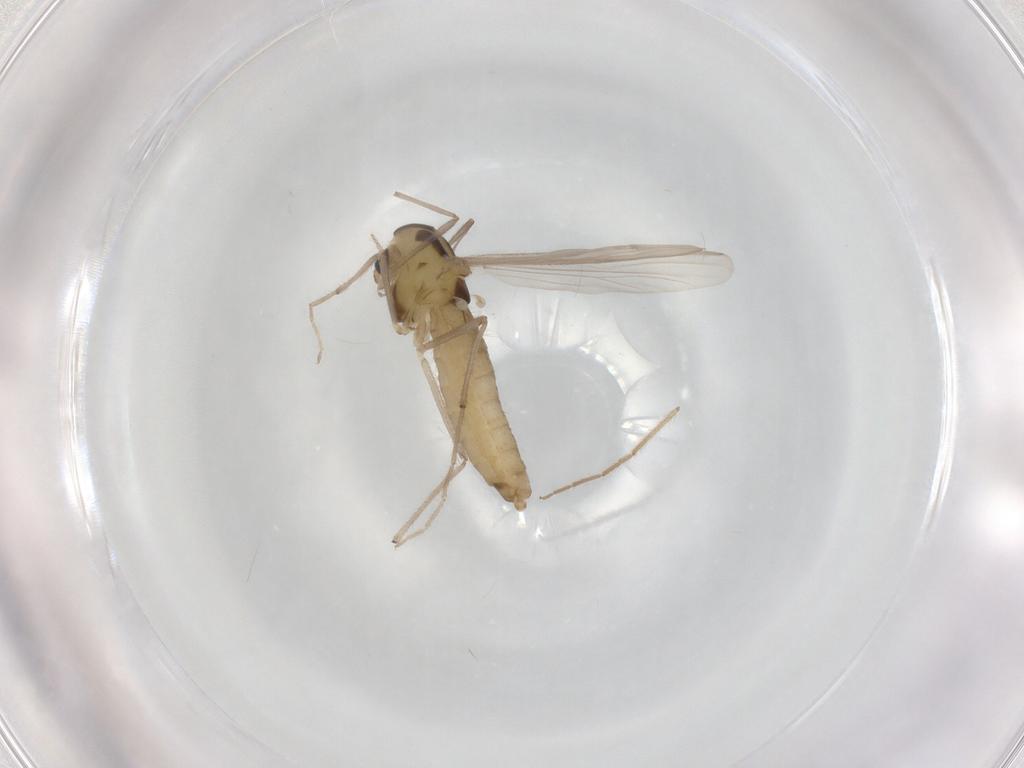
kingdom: Animalia
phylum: Arthropoda
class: Insecta
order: Diptera
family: Chironomidae
